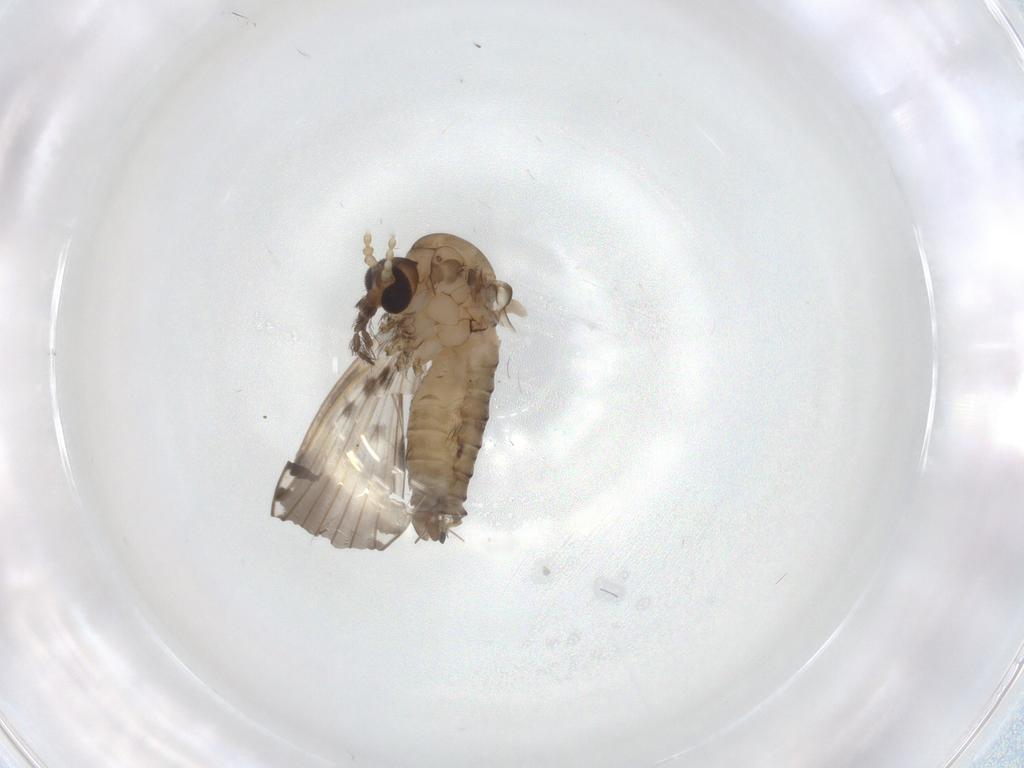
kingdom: Animalia
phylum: Arthropoda
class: Insecta
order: Diptera
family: Psychodidae
